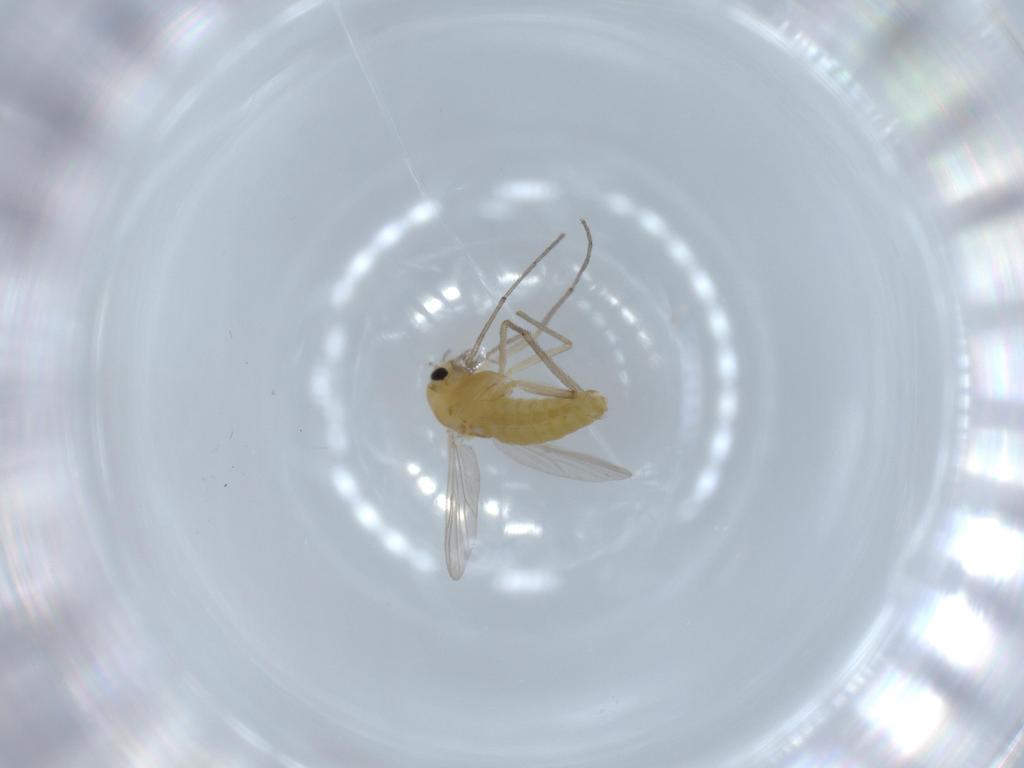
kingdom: Animalia
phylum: Arthropoda
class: Insecta
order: Diptera
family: Chironomidae
